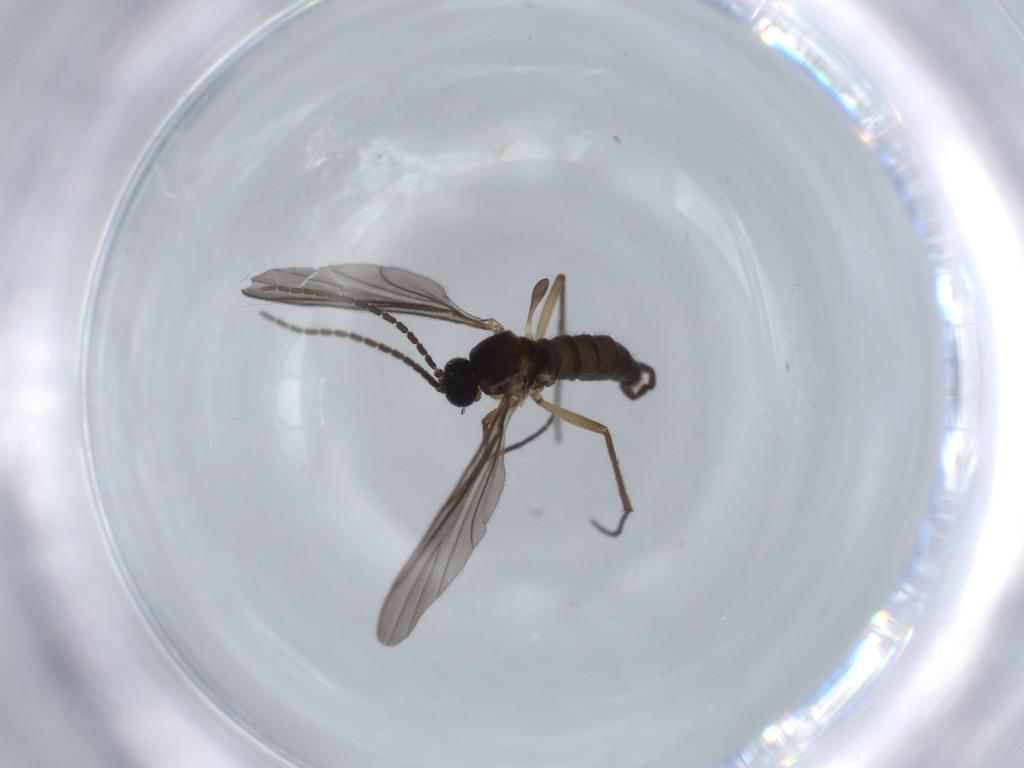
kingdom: Animalia
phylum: Arthropoda
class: Insecta
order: Diptera
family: Sciaridae
